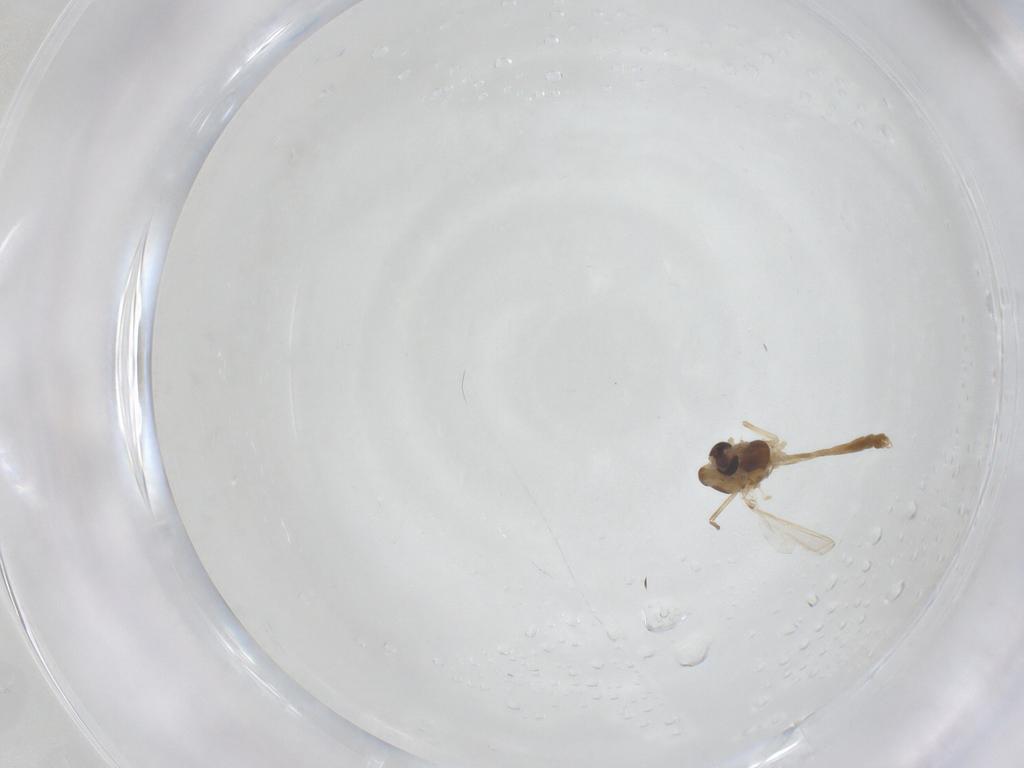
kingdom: Animalia
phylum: Arthropoda
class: Insecta
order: Diptera
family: Chironomidae
